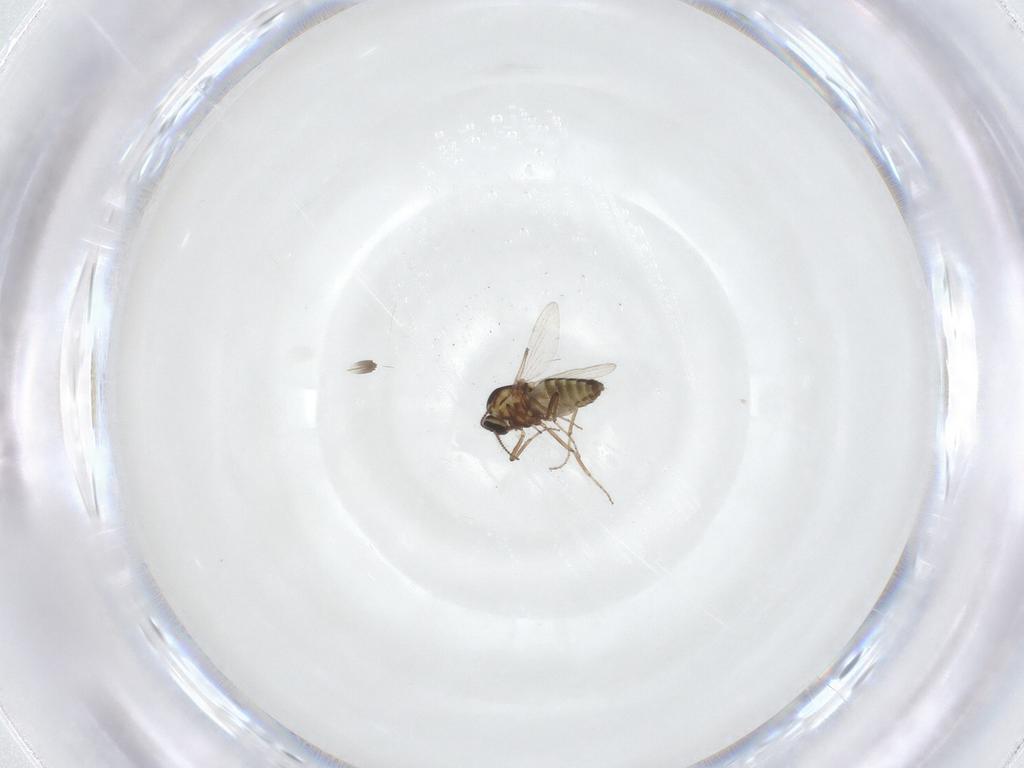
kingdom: Animalia
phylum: Arthropoda
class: Insecta
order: Diptera
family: Ceratopogonidae
